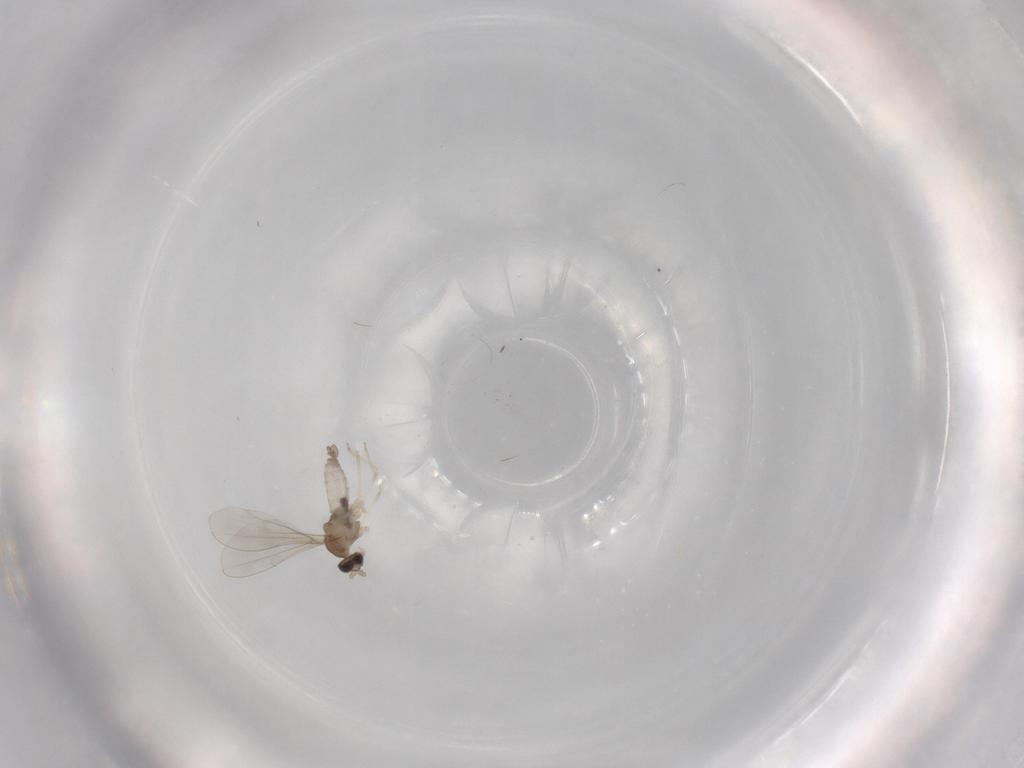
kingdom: Animalia
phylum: Arthropoda
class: Insecta
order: Diptera
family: Cecidomyiidae
